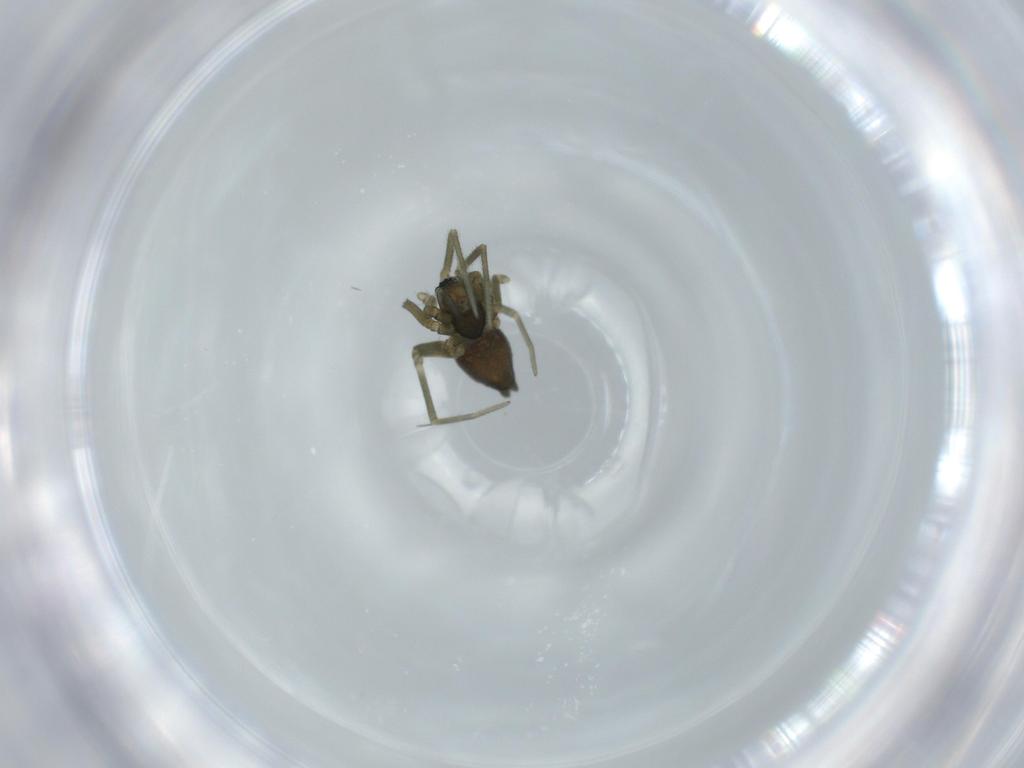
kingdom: Animalia
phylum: Arthropoda
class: Arachnida
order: Araneae
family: Linyphiidae
